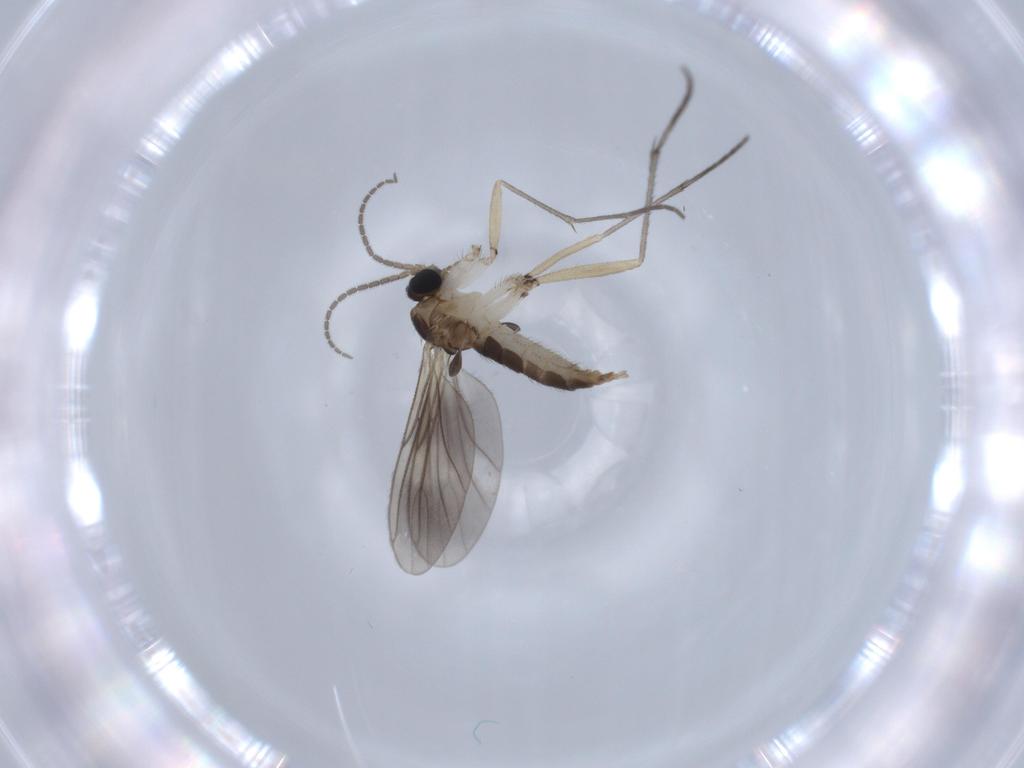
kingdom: Animalia
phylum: Arthropoda
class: Insecta
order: Diptera
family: Sciaridae
